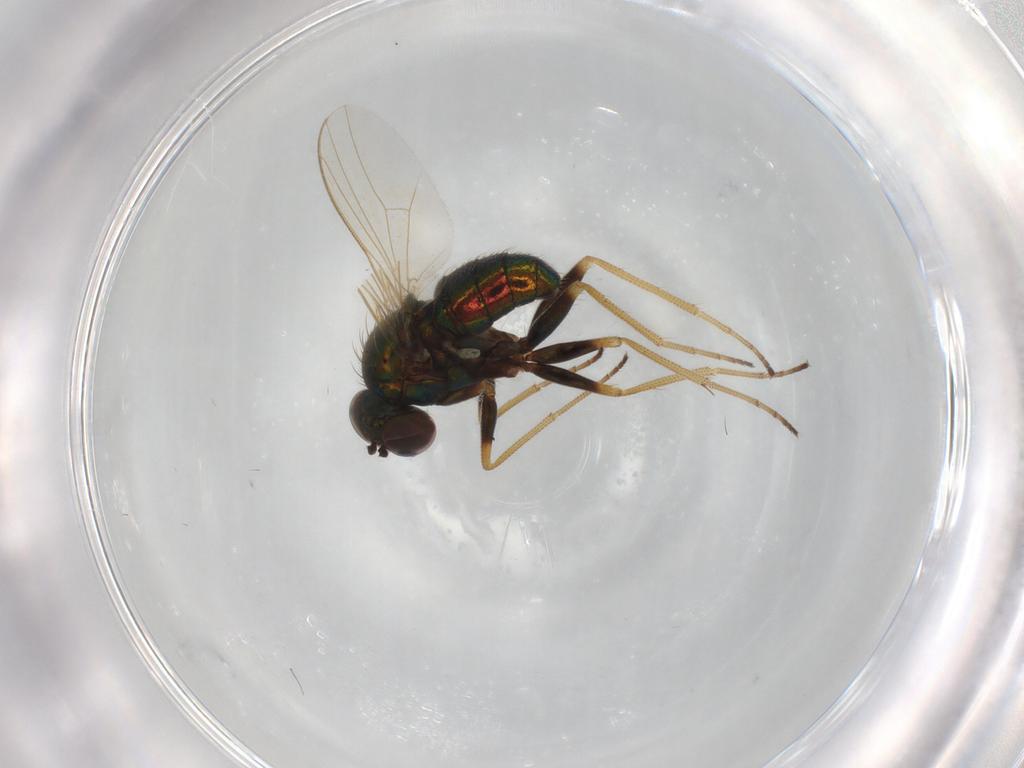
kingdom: Animalia
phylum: Arthropoda
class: Insecta
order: Diptera
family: Dolichopodidae
